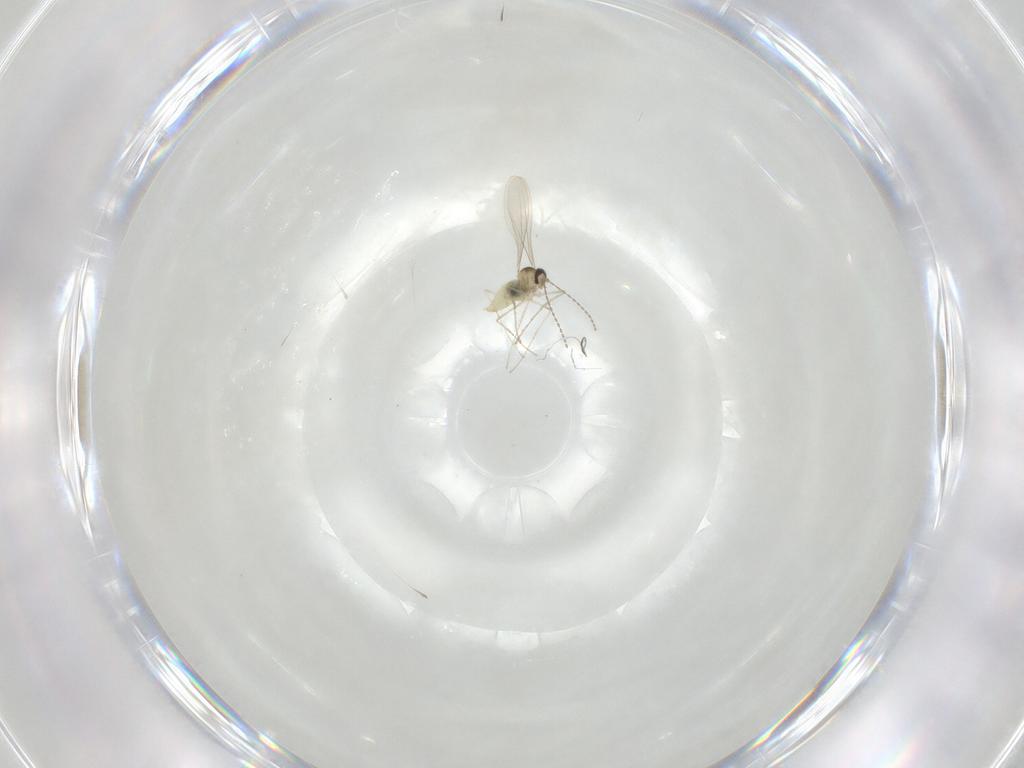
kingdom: Animalia
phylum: Arthropoda
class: Insecta
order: Diptera
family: Cecidomyiidae
